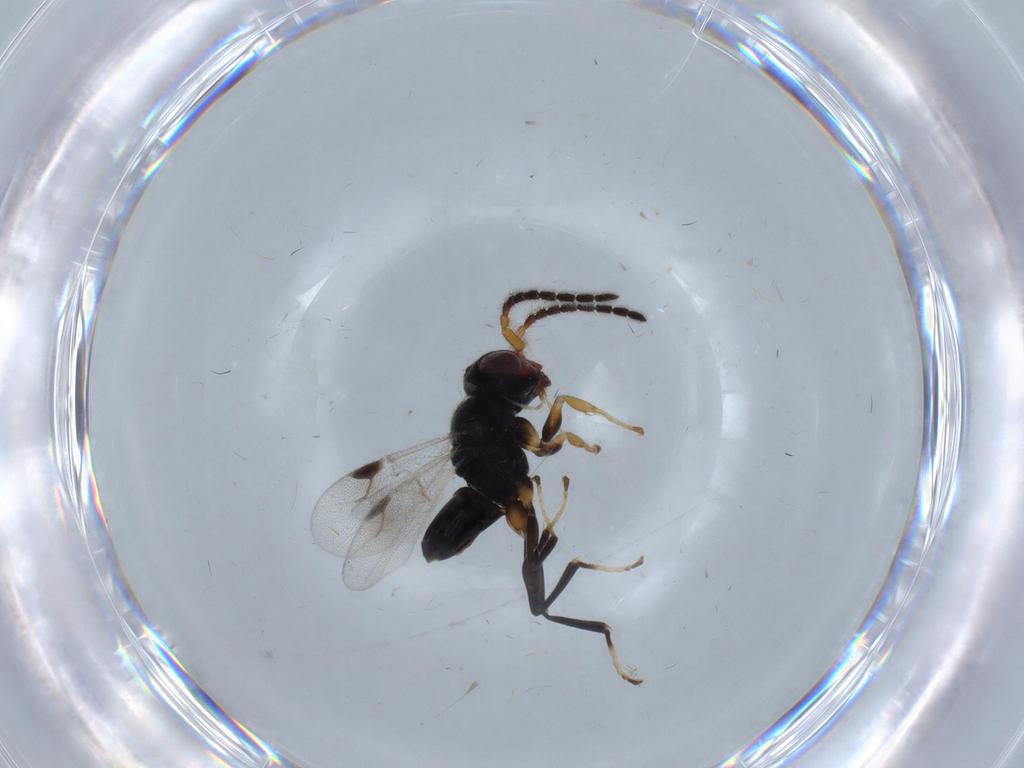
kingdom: Animalia
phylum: Arthropoda
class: Insecta
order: Hymenoptera
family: Dryinidae
